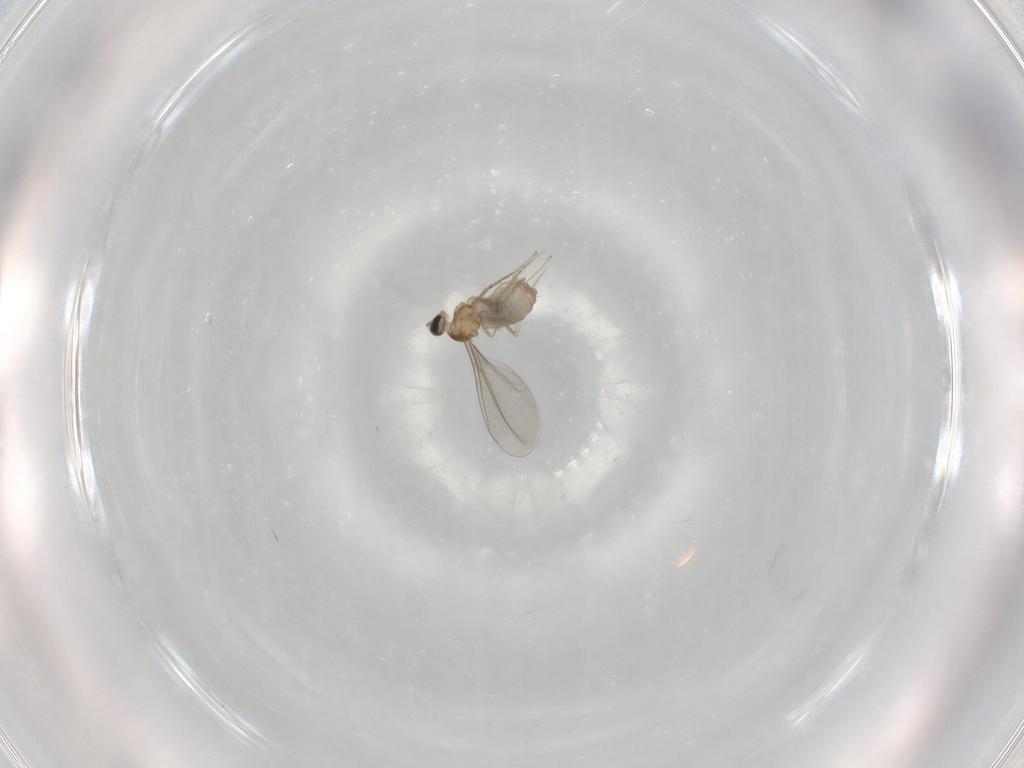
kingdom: Animalia
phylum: Arthropoda
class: Insecta
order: Diptera
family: Cecidomyiidae
